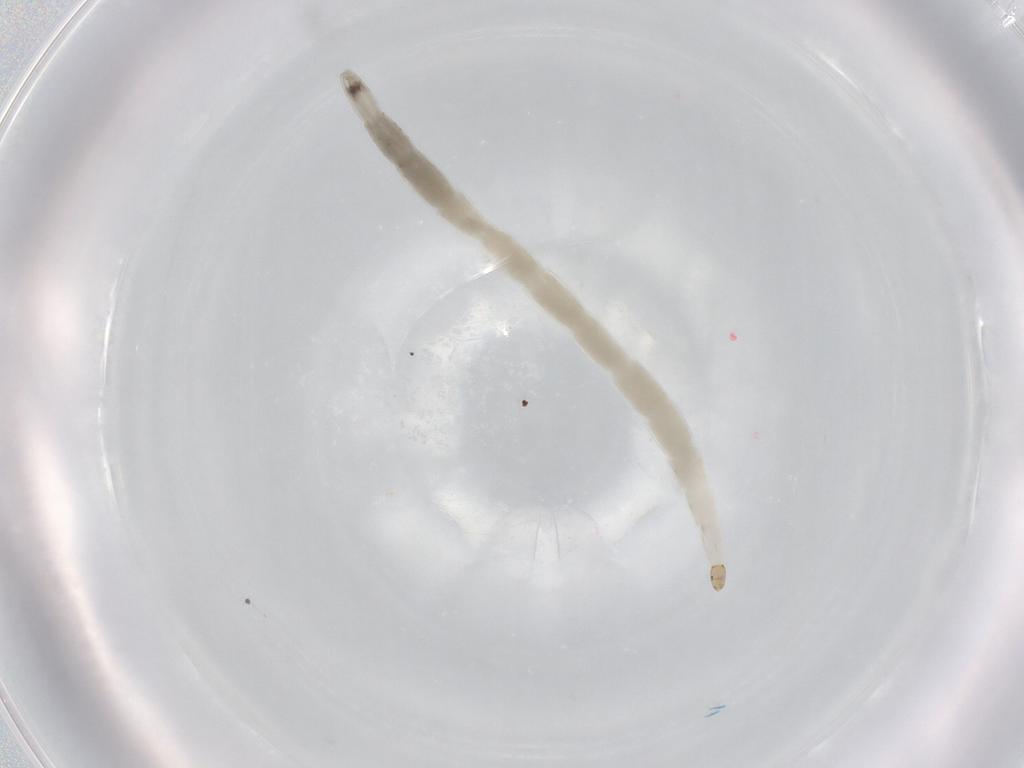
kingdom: Animalia
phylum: Arthropoda
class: Insecta
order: Diptera
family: Ceratopogonidae
